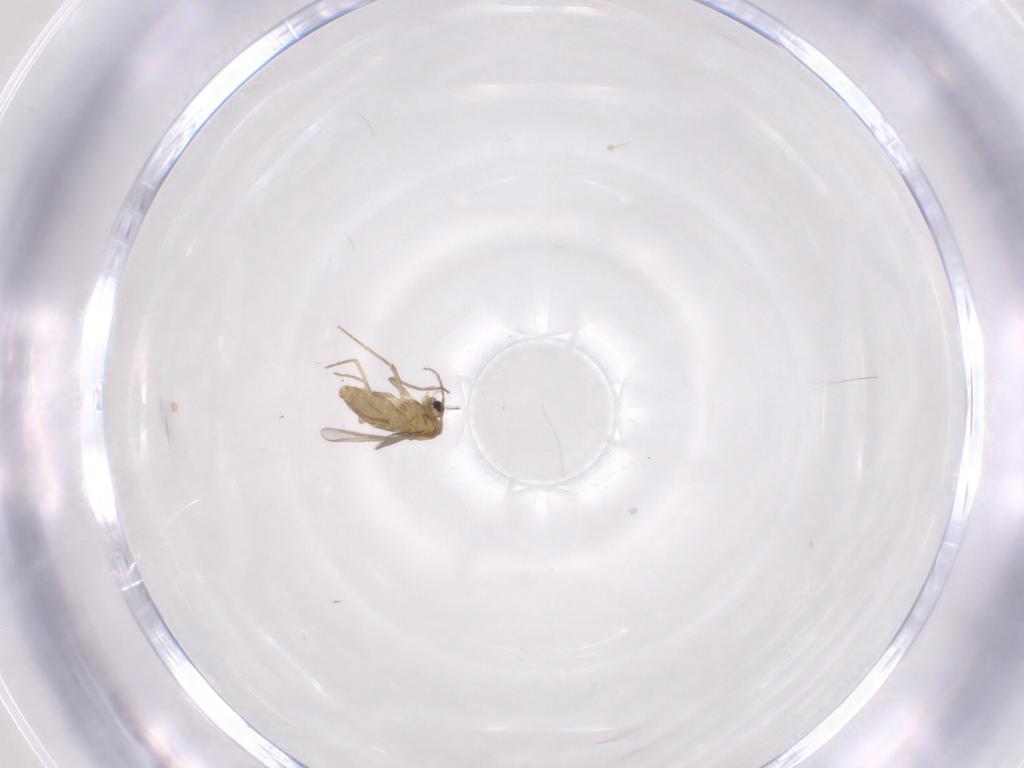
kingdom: Animalia
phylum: Arthropoda
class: Insecta
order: Diptera
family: Chironomidae
